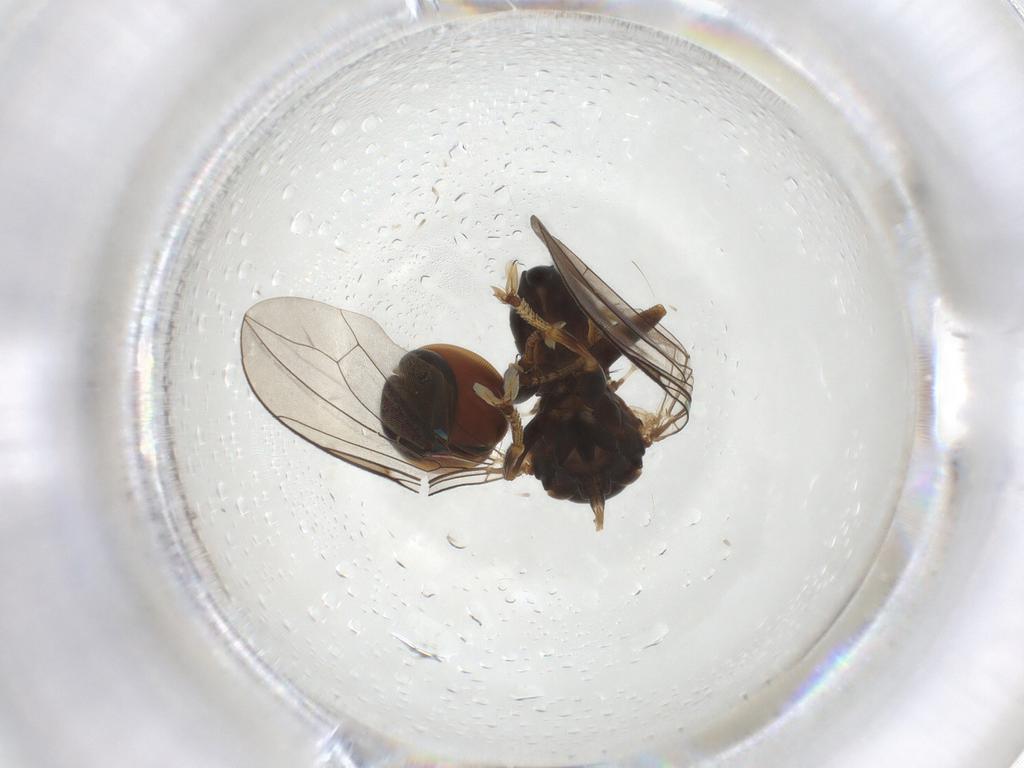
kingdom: Animalia
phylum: Arthropoda
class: Insecta
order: Diptera
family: Pipunculidae
